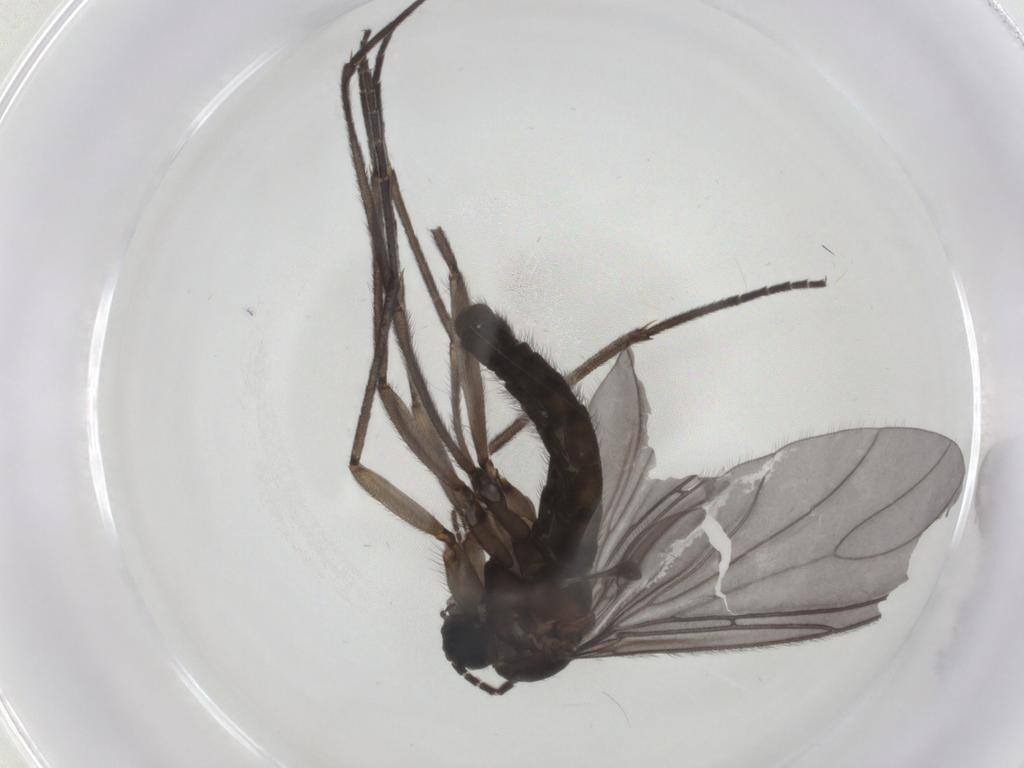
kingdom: Animalia
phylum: Arthropoda
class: Insecta
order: Diptera
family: Sciaridae
